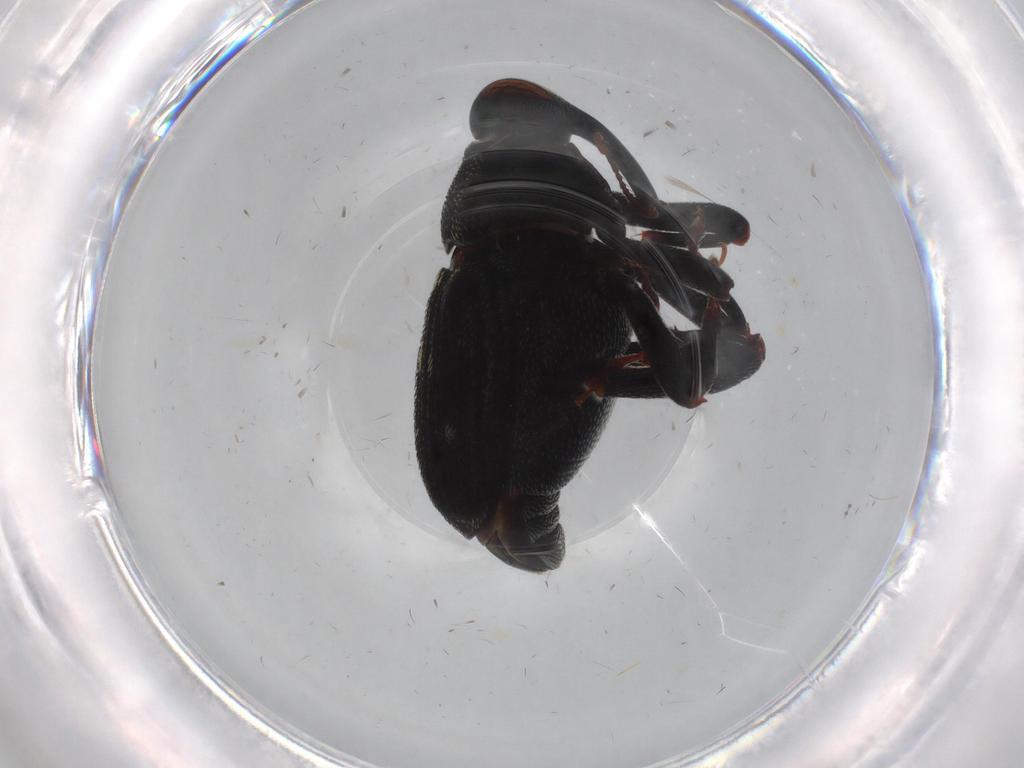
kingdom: Animalia
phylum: Arthropoda
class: Insecta
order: Coleoptera
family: Curculionidae
